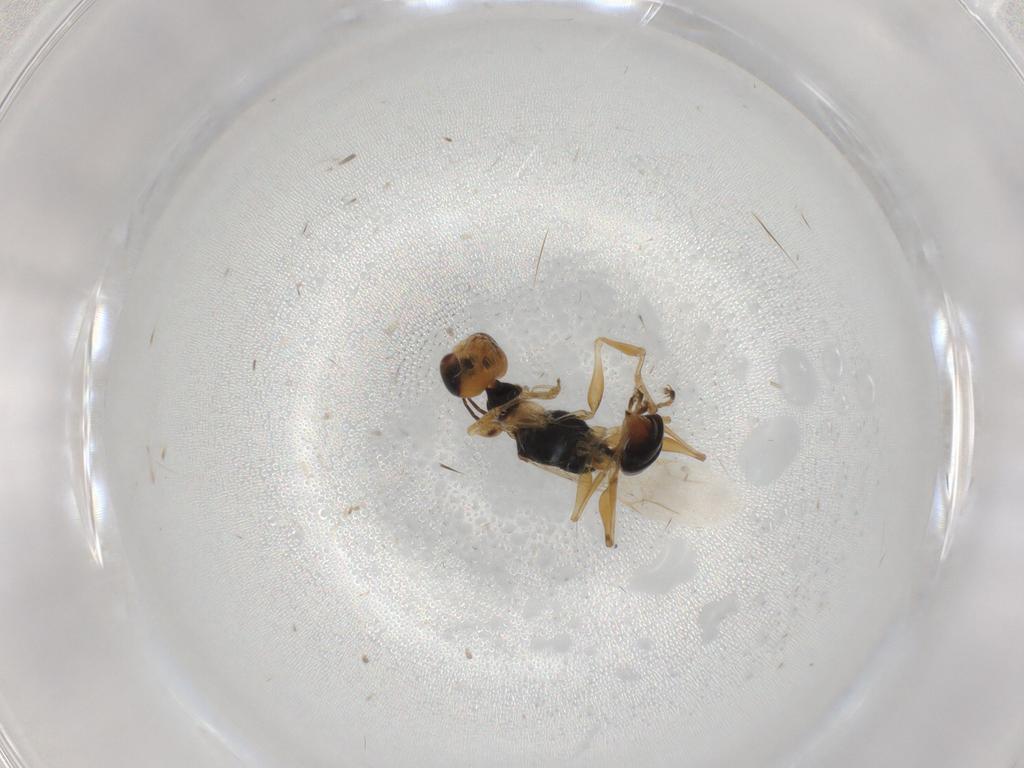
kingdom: Animalia
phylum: Arthropoda
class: Insecta
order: Hymenoptera
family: Dryinidae
